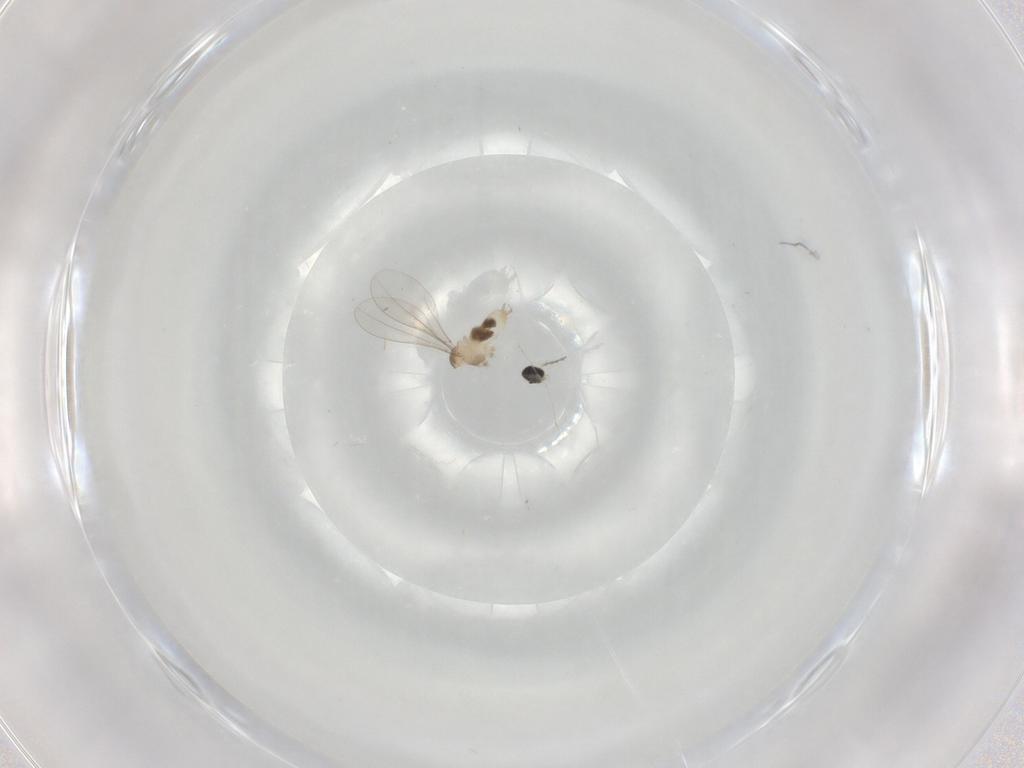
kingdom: Animalia
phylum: Arthropoda
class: Insecta
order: Diptera
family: Cecidomyiidae
